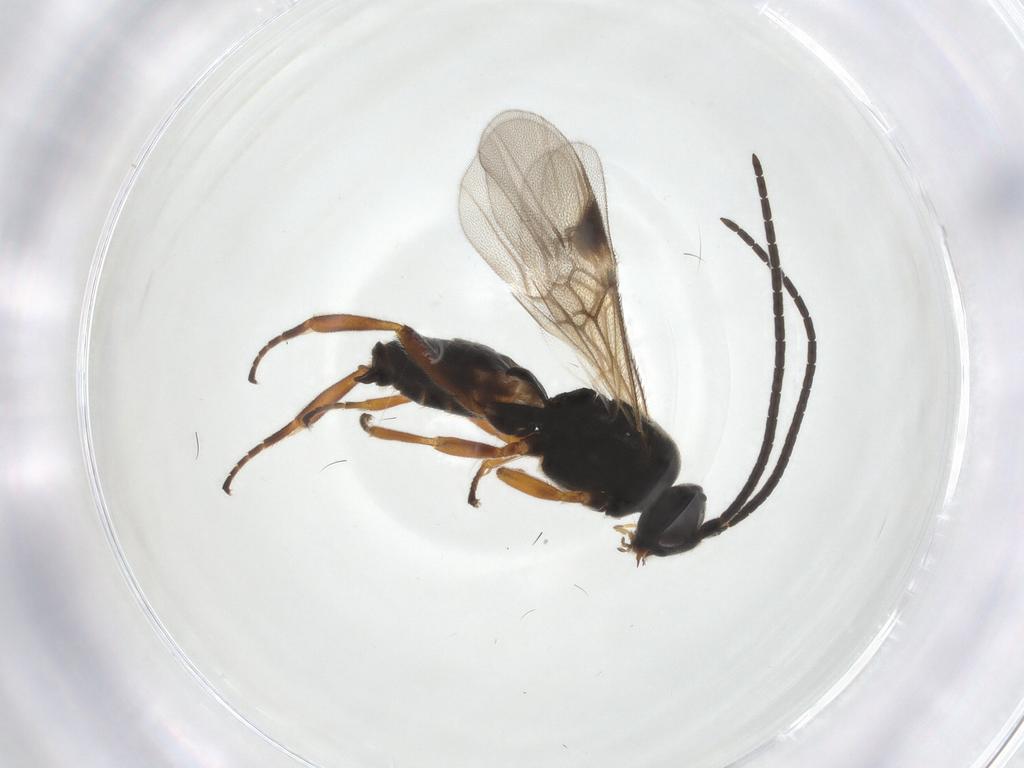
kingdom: Animalia
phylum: Arthropoda
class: Insecta
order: Hymenoptera
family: Braconidae
